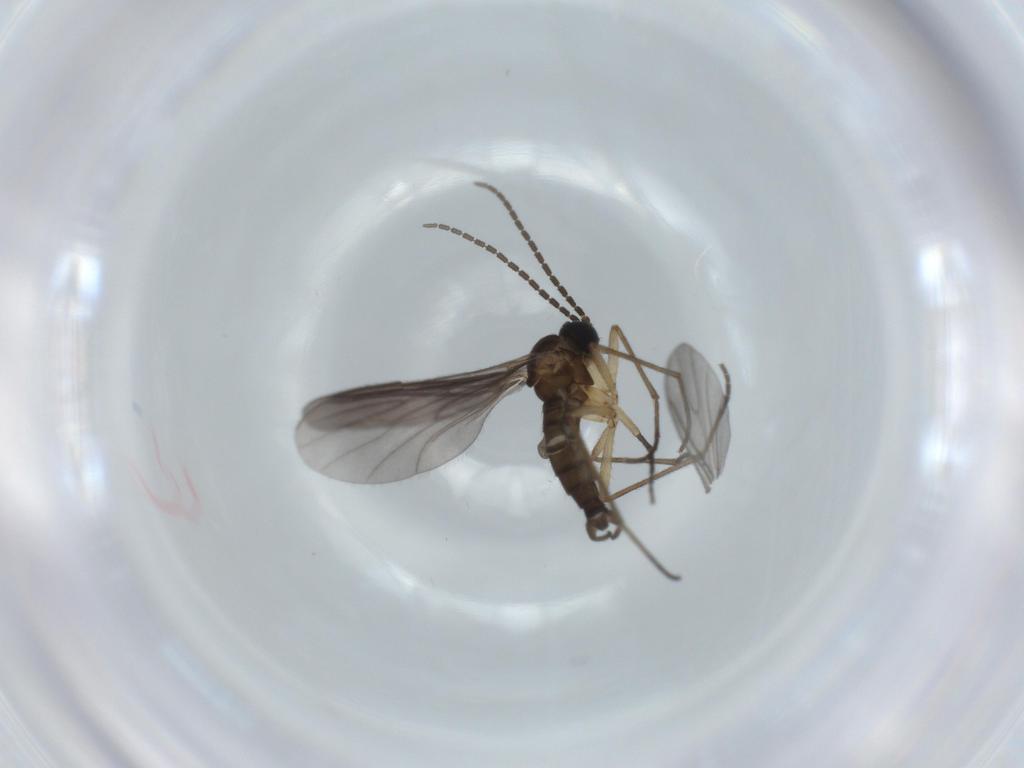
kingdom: Animalia
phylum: Arthropoda
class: Insecta
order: Diptera
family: Sciaridae
